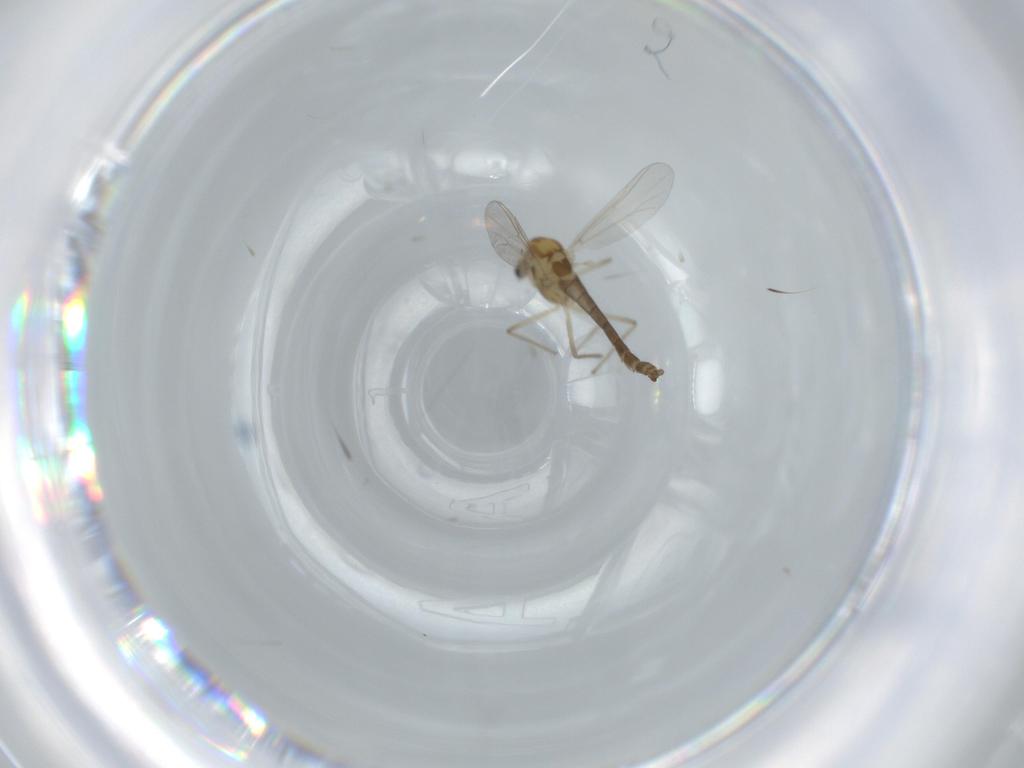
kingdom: Animalia
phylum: Arthropoda
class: Insecta
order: Diptera
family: Chironomidae
